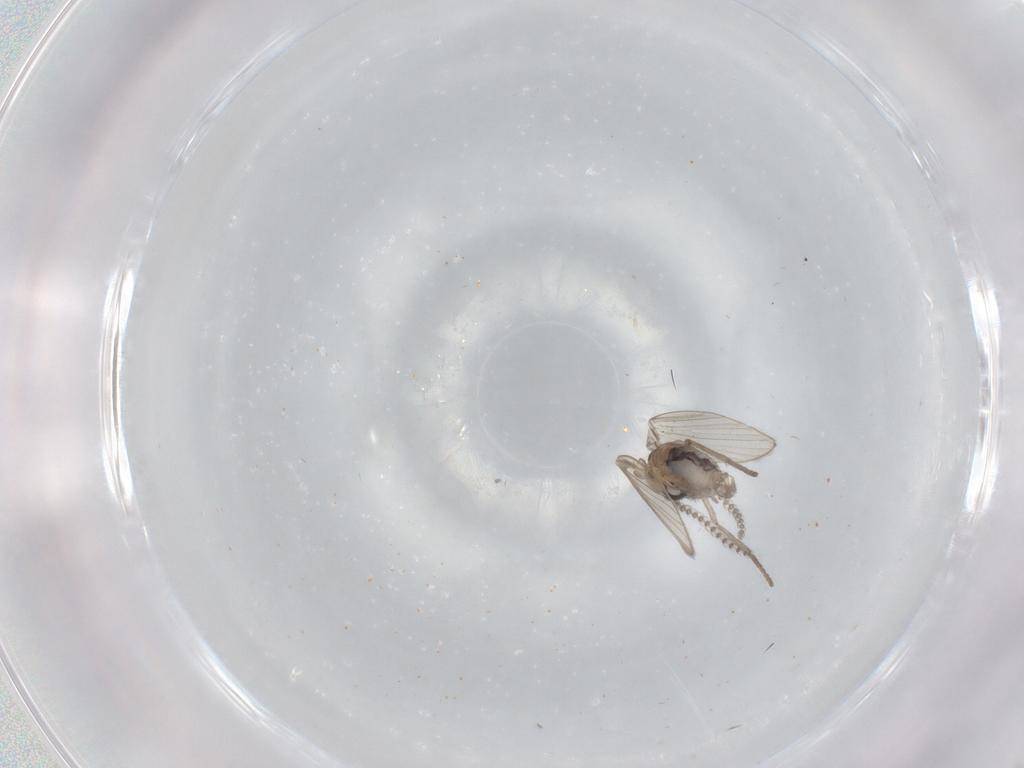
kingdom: Animalia
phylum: Arthropoda
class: Insecta
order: Diptera
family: Psychodidae
